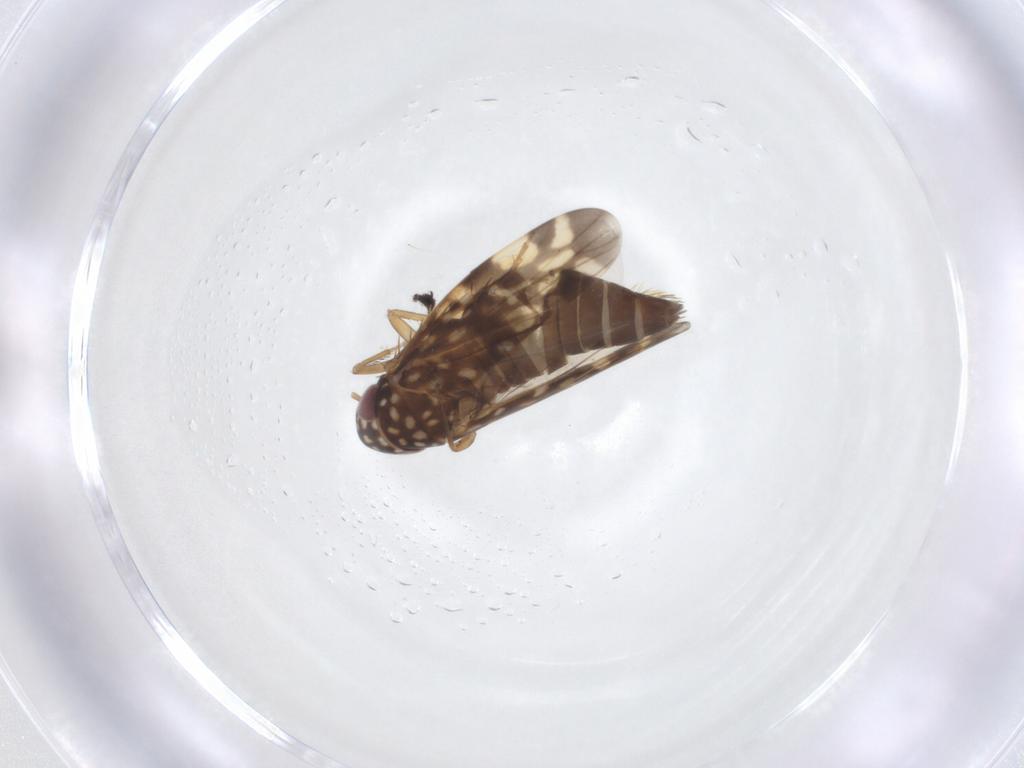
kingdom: Animalia
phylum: Arthropoda
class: Insecta
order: Hemiptera
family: Cicadellidae
